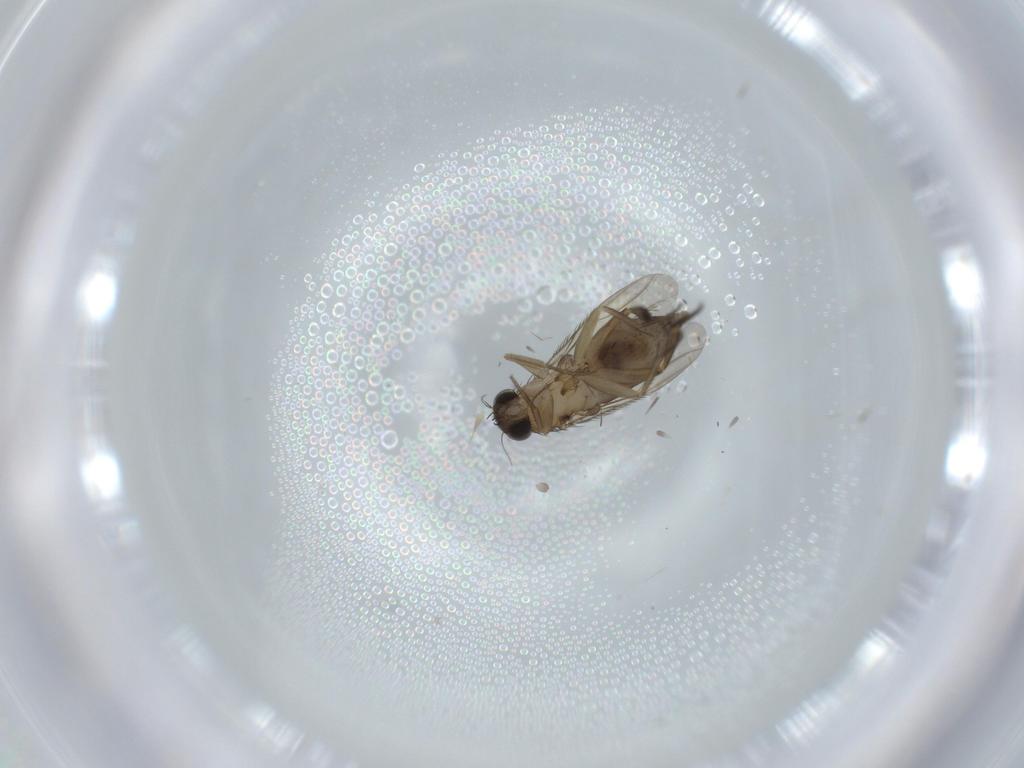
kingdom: Animalia
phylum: Arthropoda
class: Insecta
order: Diptera
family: Phoridae
